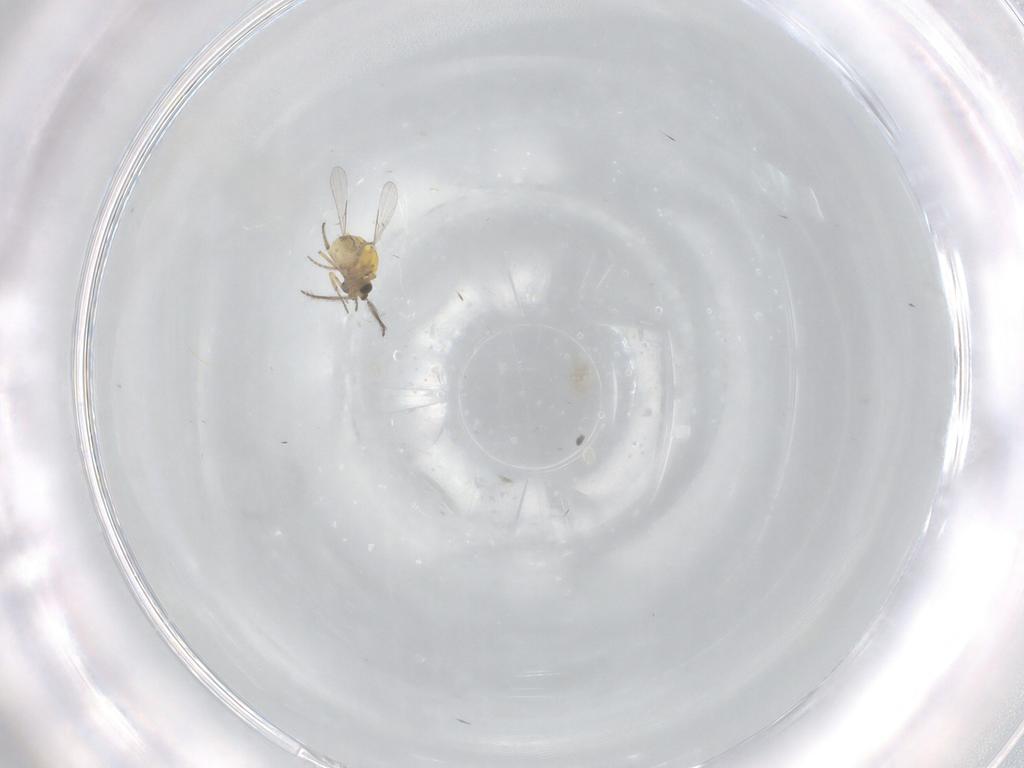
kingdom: Animalia
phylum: Arthropoda
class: Insecta
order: Diptera
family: Ceratopogonidae
